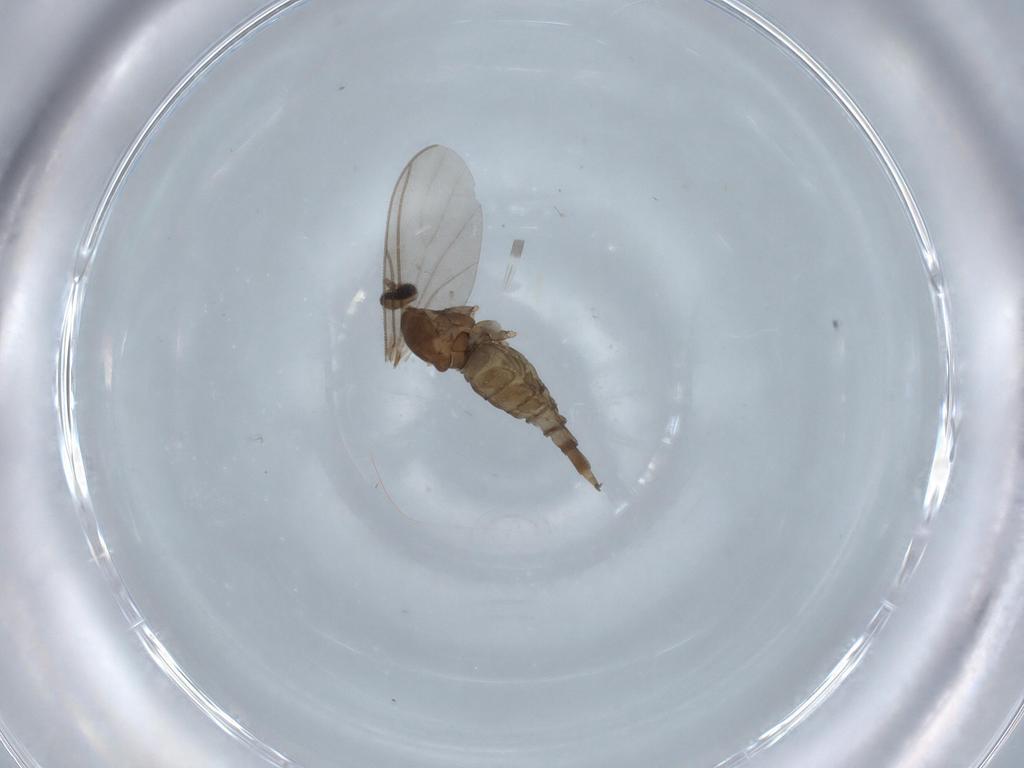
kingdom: Animalia
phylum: Arthropoda
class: Insecta
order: Diptera
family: Cecidomyiidae
